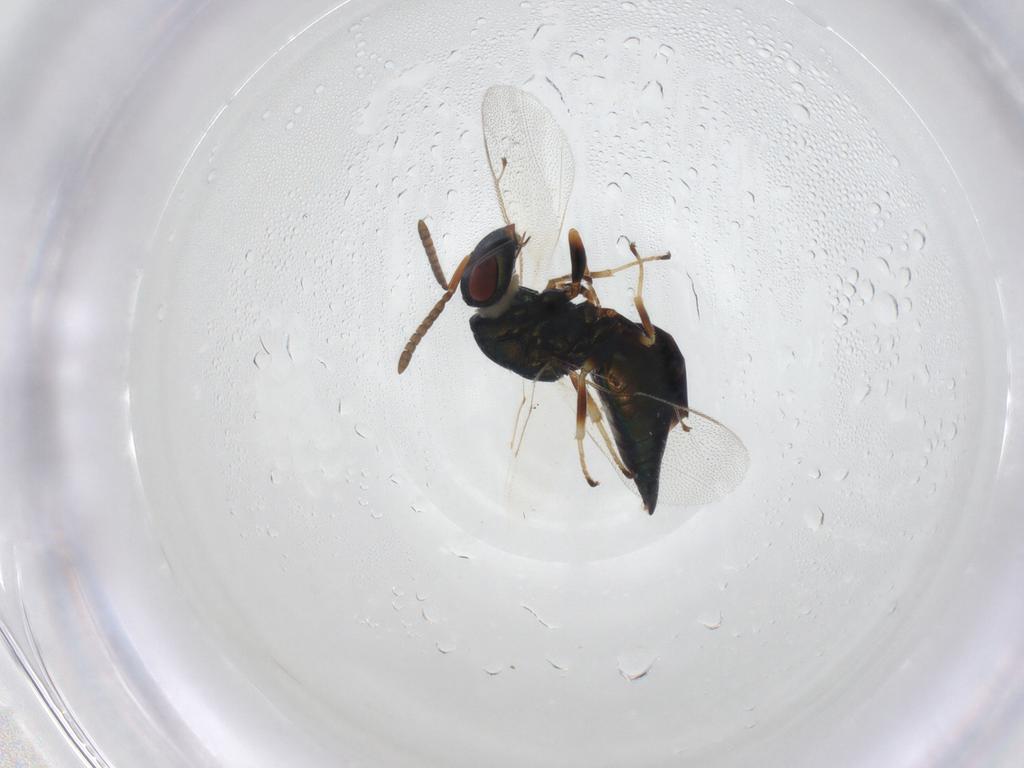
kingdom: Animalia
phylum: Arthropoda
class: Insecta
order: Hymenoptera
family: Pteromalidae
